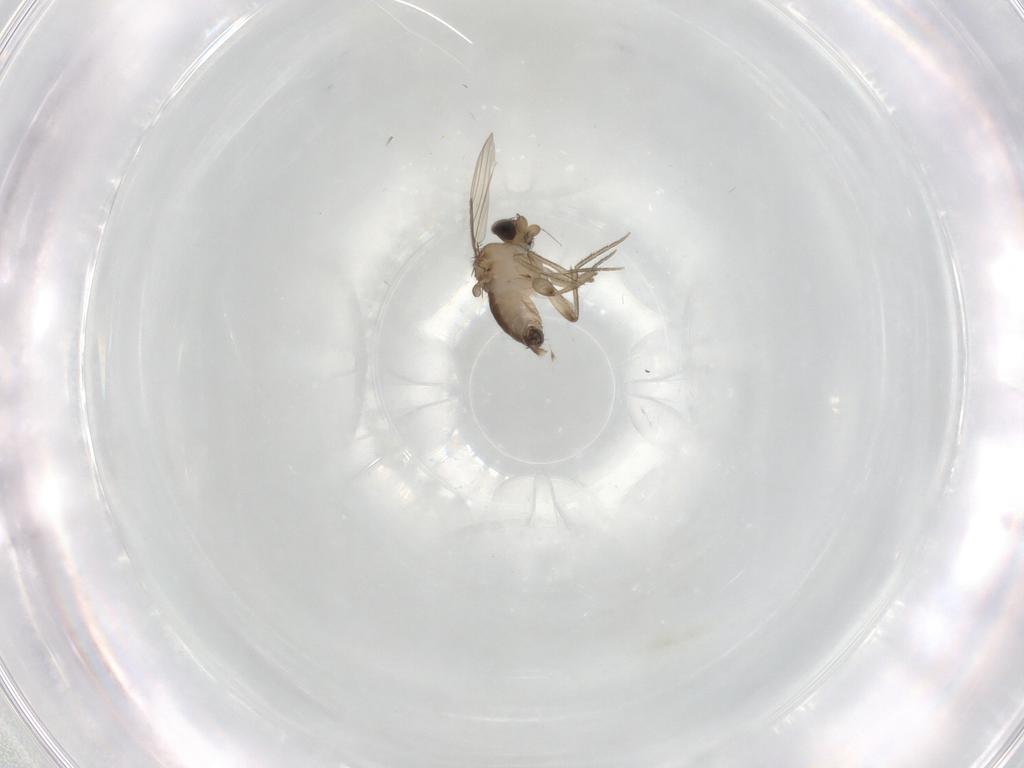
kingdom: Animalia
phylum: Arthropoda
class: Insecta
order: Diptera
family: Phoridae
